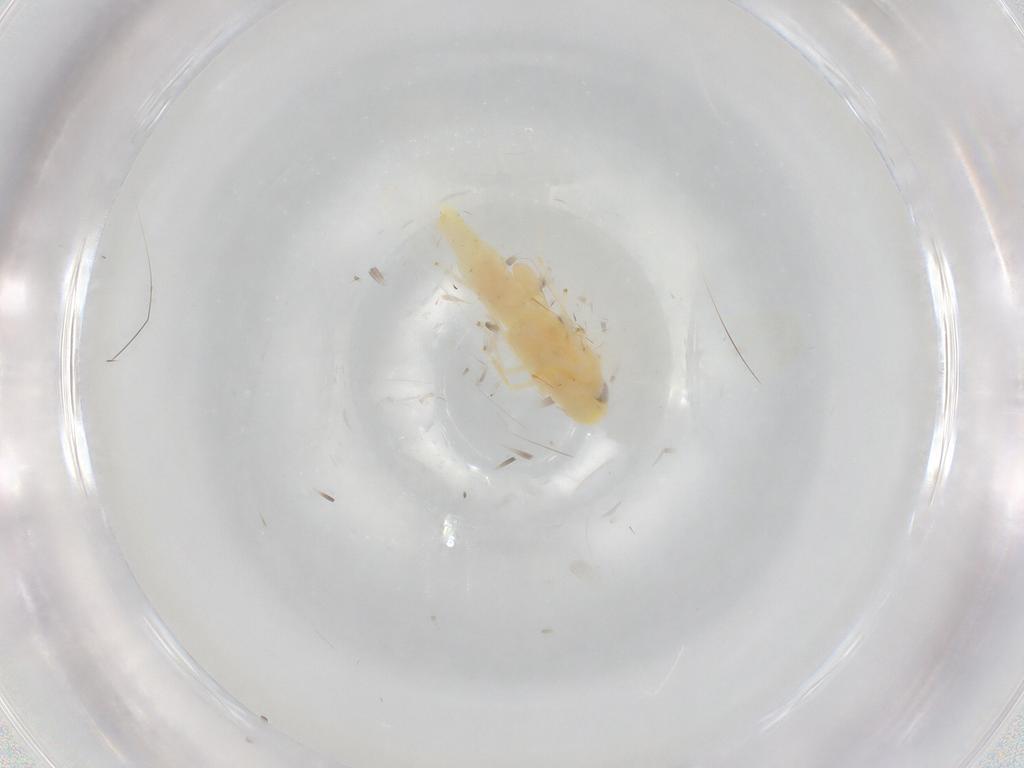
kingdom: Animalia
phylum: Arthropoda
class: Insecta
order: Hemiptera
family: Cicadellidae
